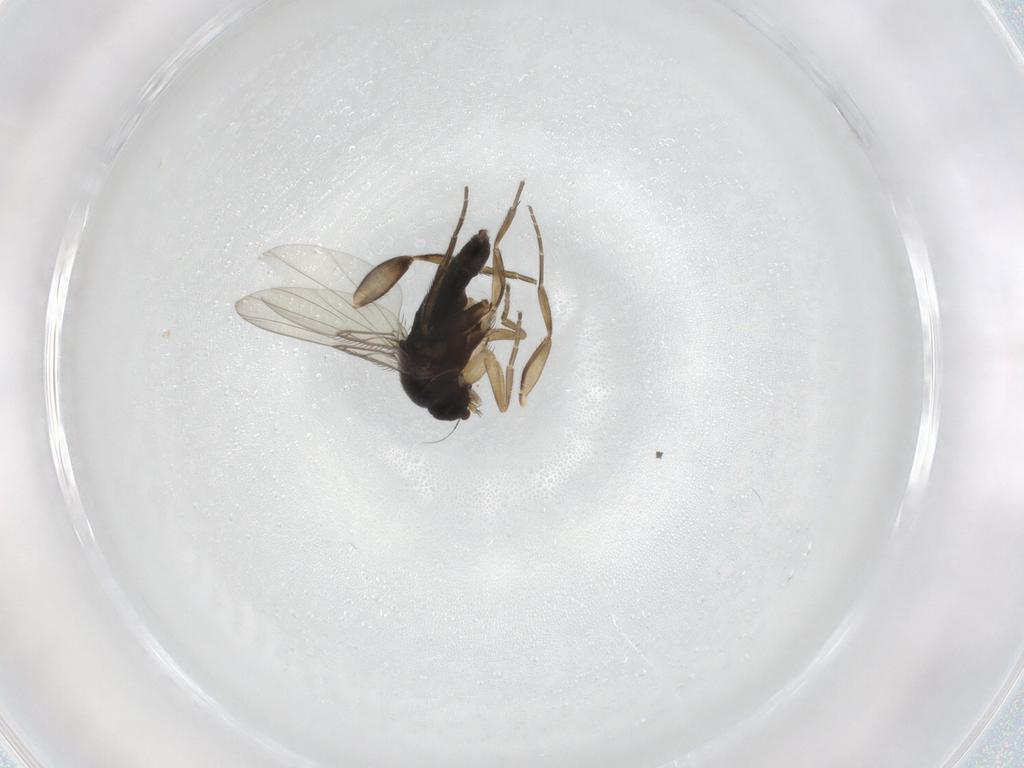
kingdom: Animalia
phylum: Arthropoda
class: Insecta
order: Diptera
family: Phoridae
